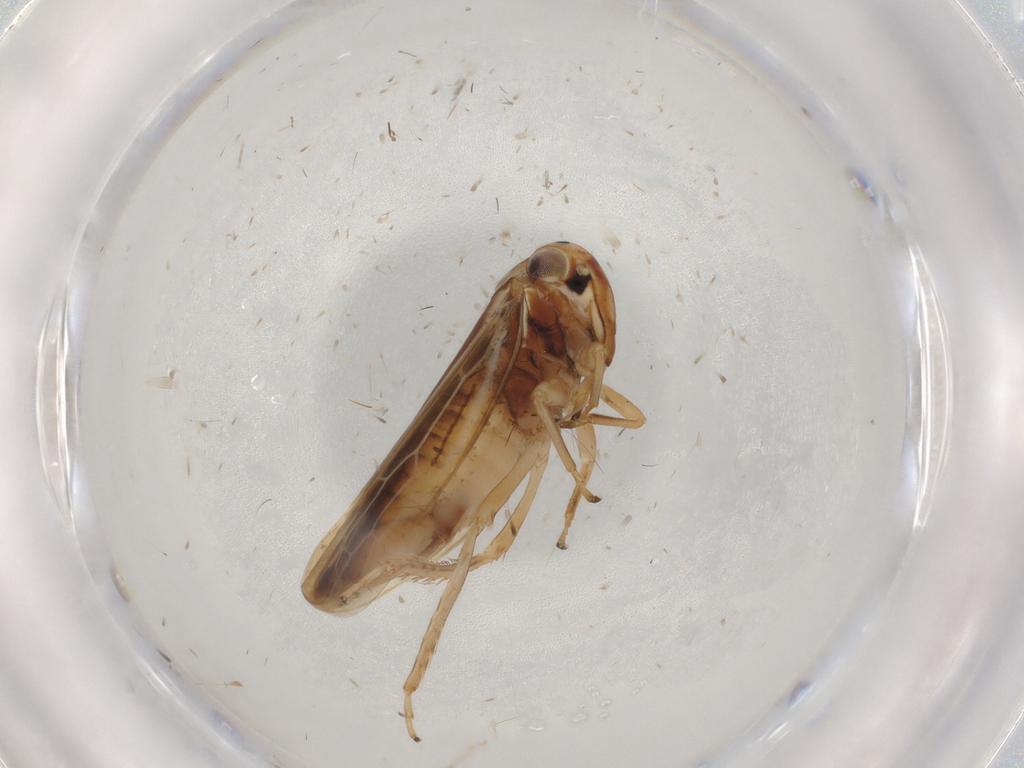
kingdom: Animalia
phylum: Arthropoda
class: Insecta
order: Hemiptera
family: Cicadellidae
